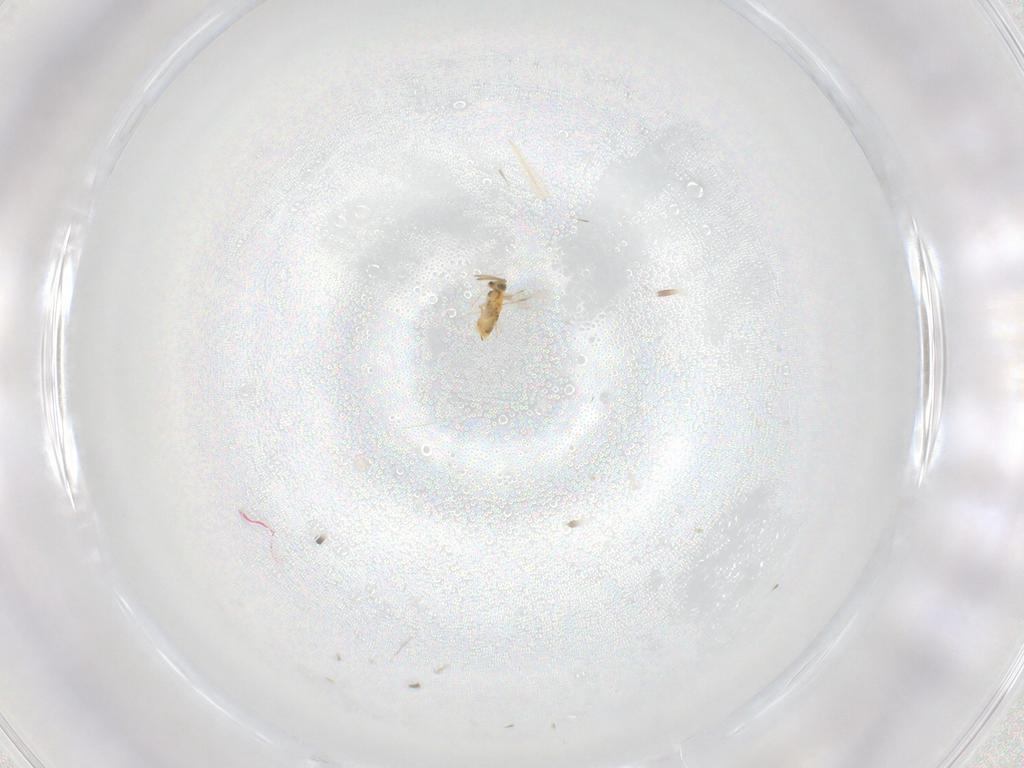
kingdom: Animalia
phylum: Arthropoda
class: Insecta
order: Hymenoptera
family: Aphelinidae
